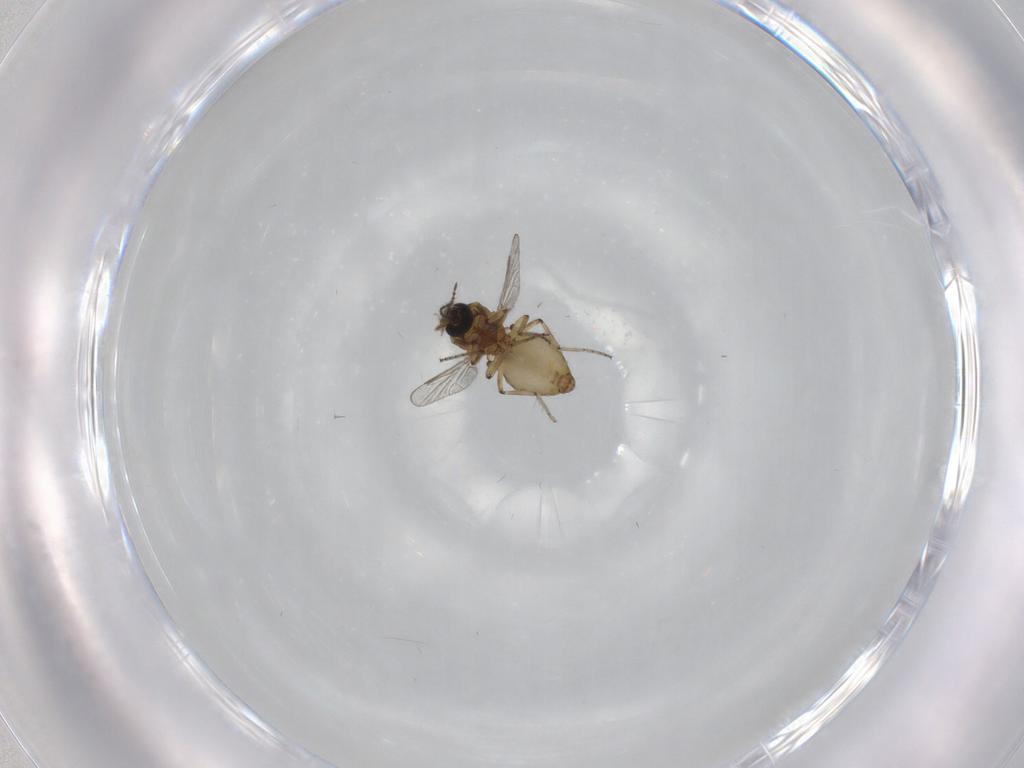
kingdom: Animalia
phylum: Arthropoda
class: Insecta
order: Diptera
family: Ceratopogonidae
